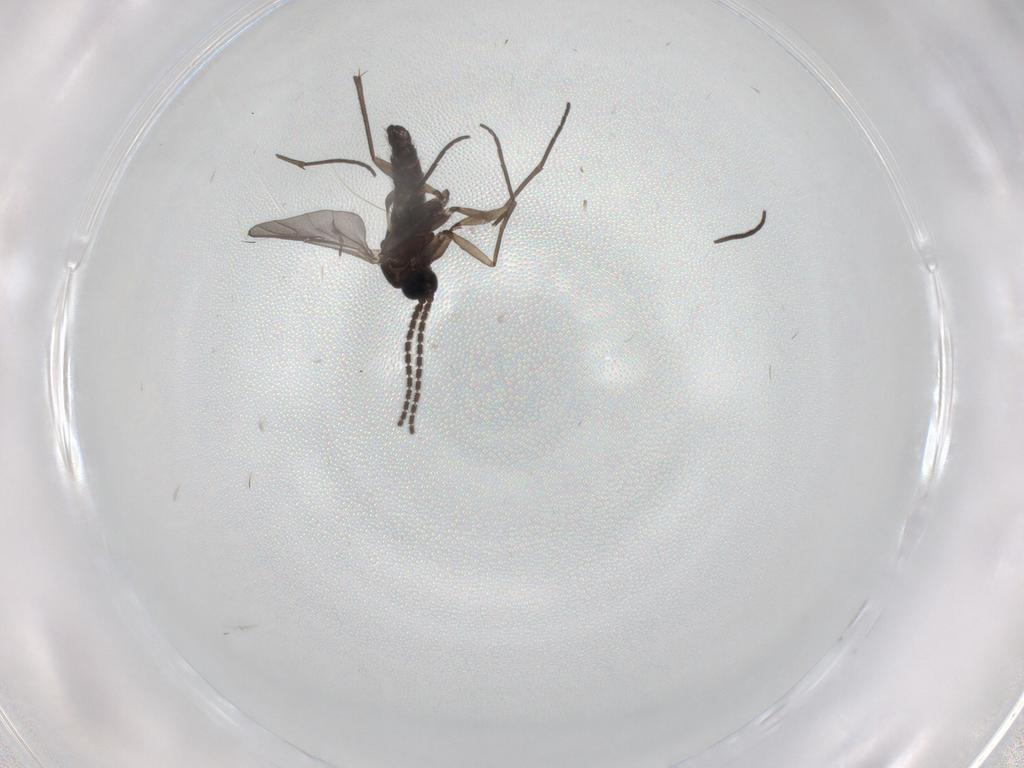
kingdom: Animalia
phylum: Arthropoda
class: Insecta
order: Diptera
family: Sciaridae
